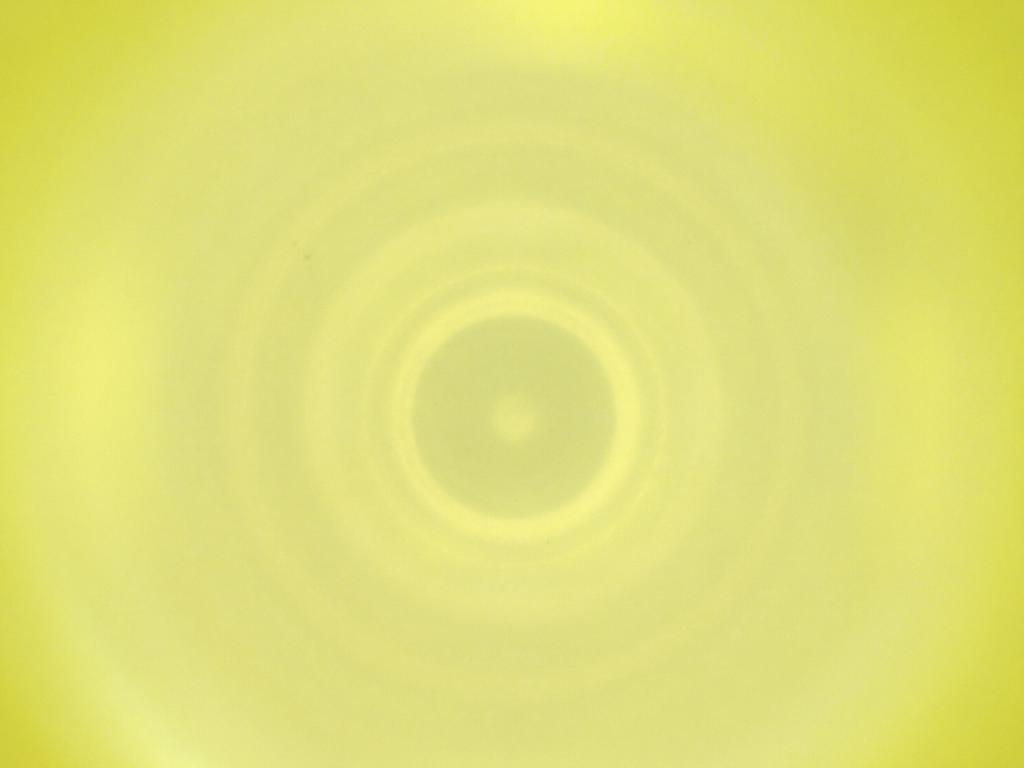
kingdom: Animalia
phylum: Arthropoda
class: Insecta
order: Diptera
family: Cecidomyiidae
